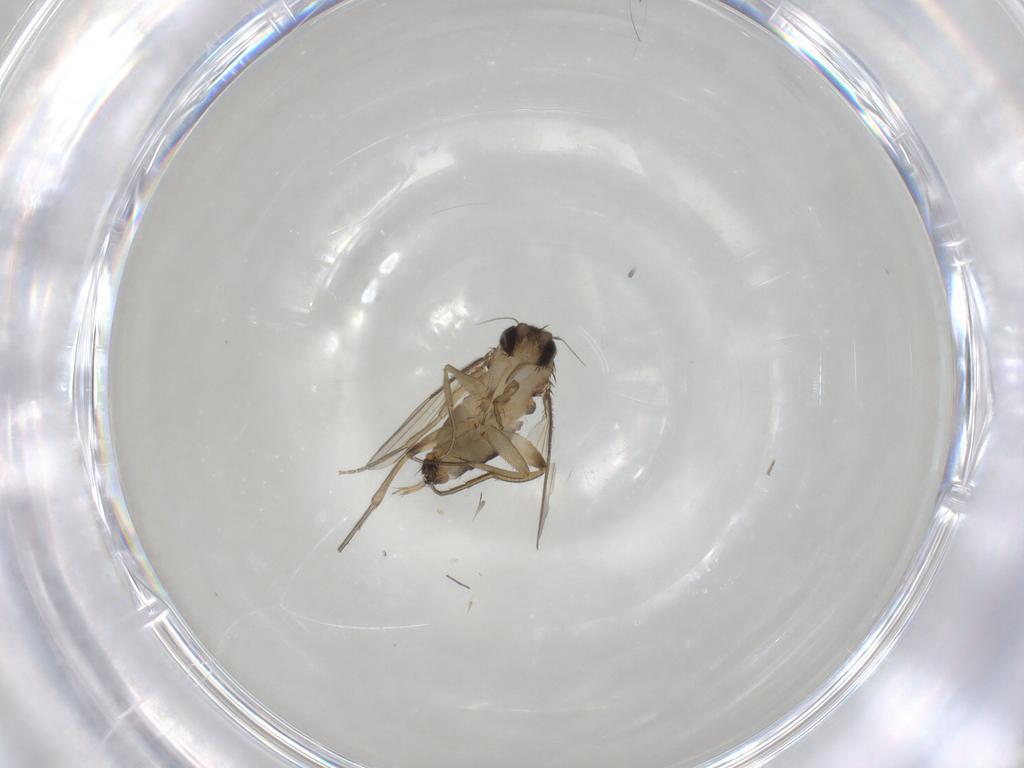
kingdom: Animalia
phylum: Arthropoda
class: Insecta
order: Diptera
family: Phoridae
